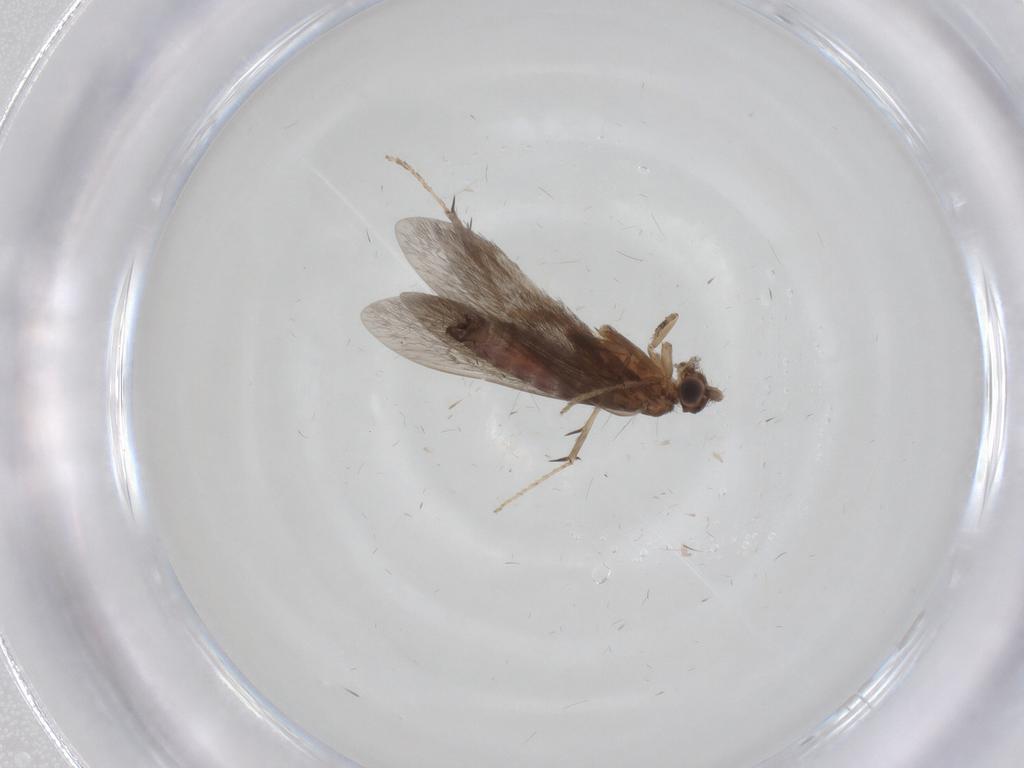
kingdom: Animalia
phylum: Arthropoda
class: Insecta
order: Trichoptera
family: Glossosomatidae
